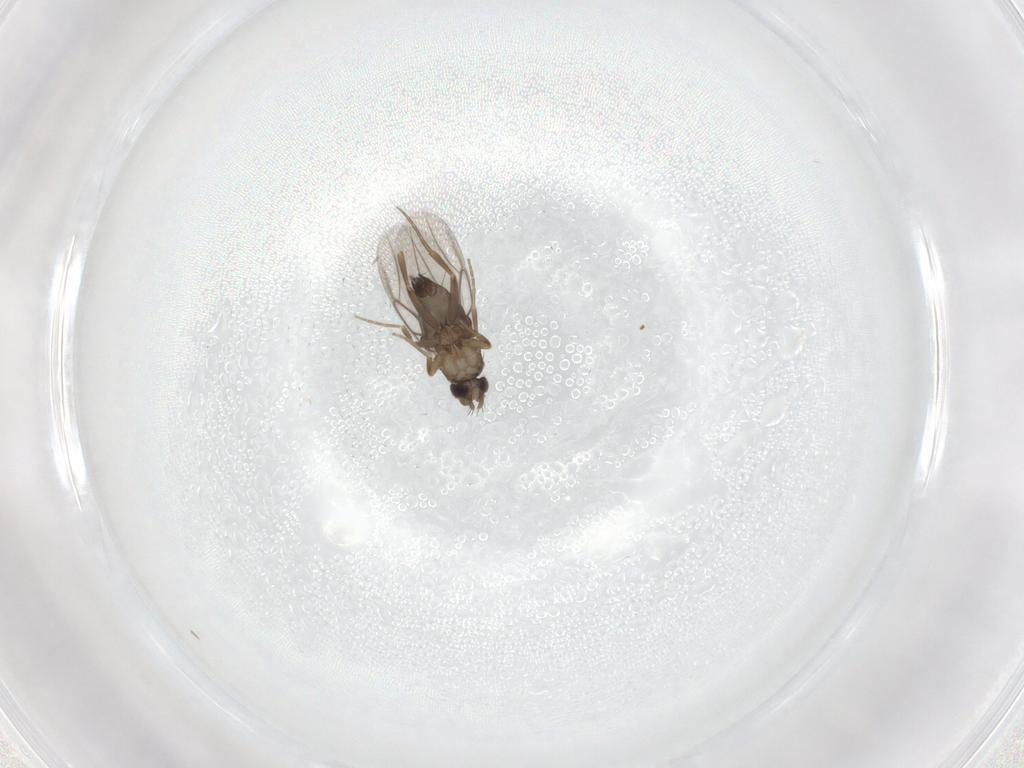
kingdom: Animalia
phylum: Arthropoda
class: Insecta
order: Diptera
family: Phoridae
